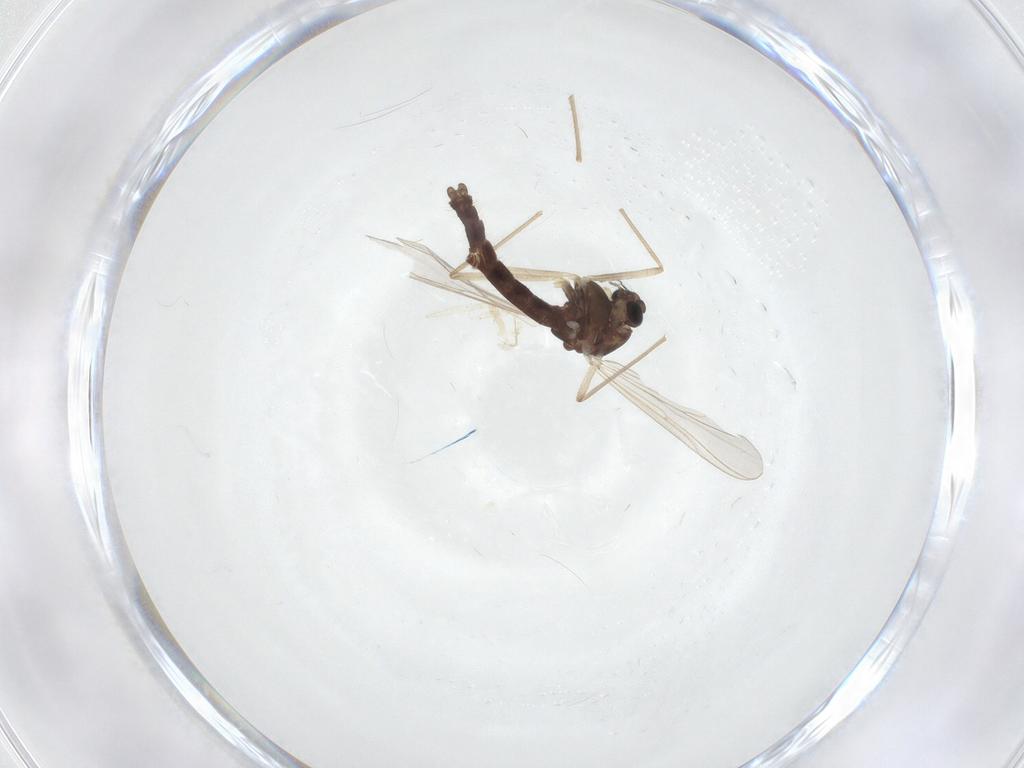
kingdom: Animalia
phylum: Arthropoda
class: Insecta
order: Diptera
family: Chironomidae
